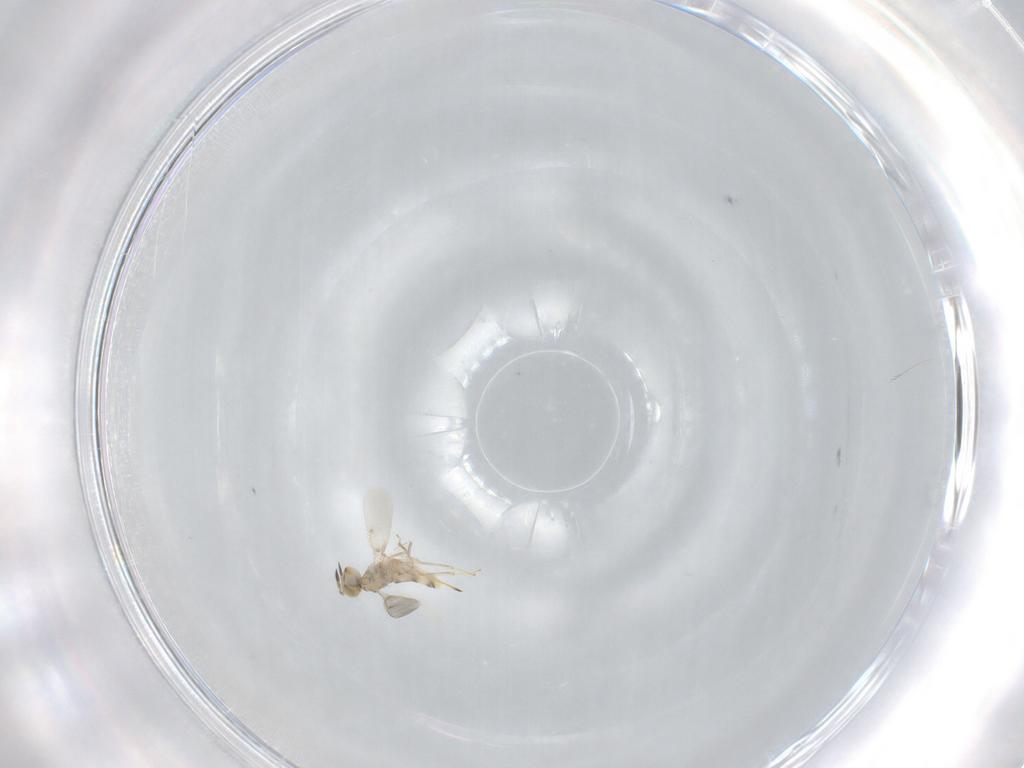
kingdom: Animalia
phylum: Arthropoda
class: Insecta
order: Hymenoptera
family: Aphelinidae
